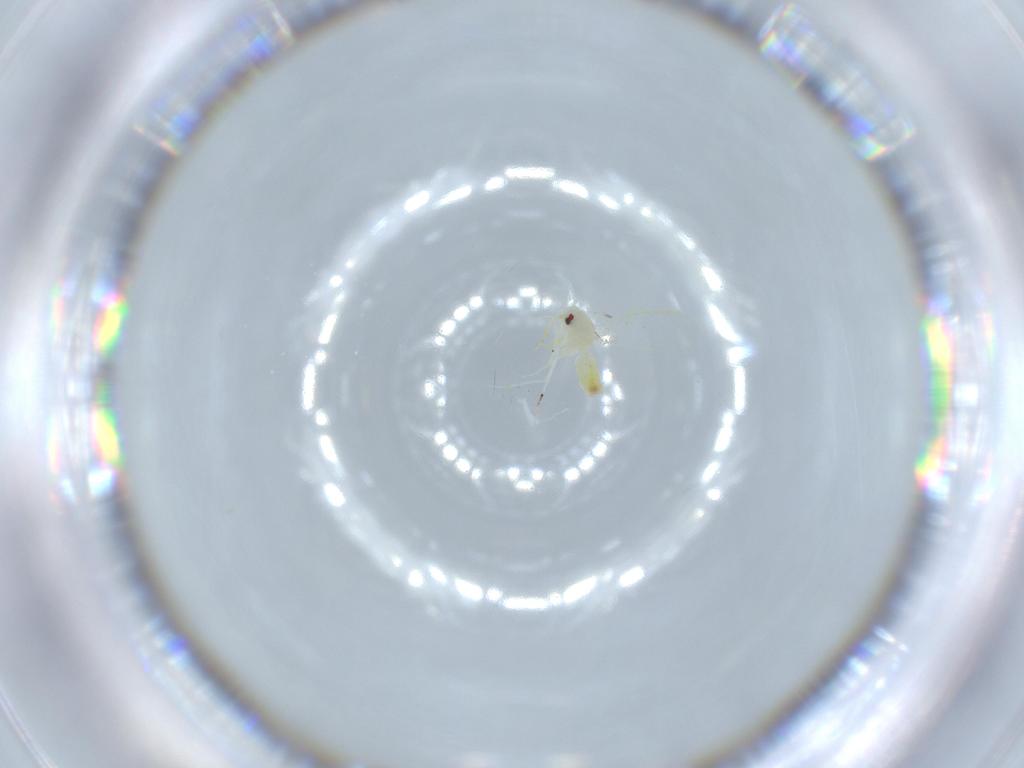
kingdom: Animalia
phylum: Arthropoda
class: Insecta
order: Hemiptera
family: Aleyrodidae
